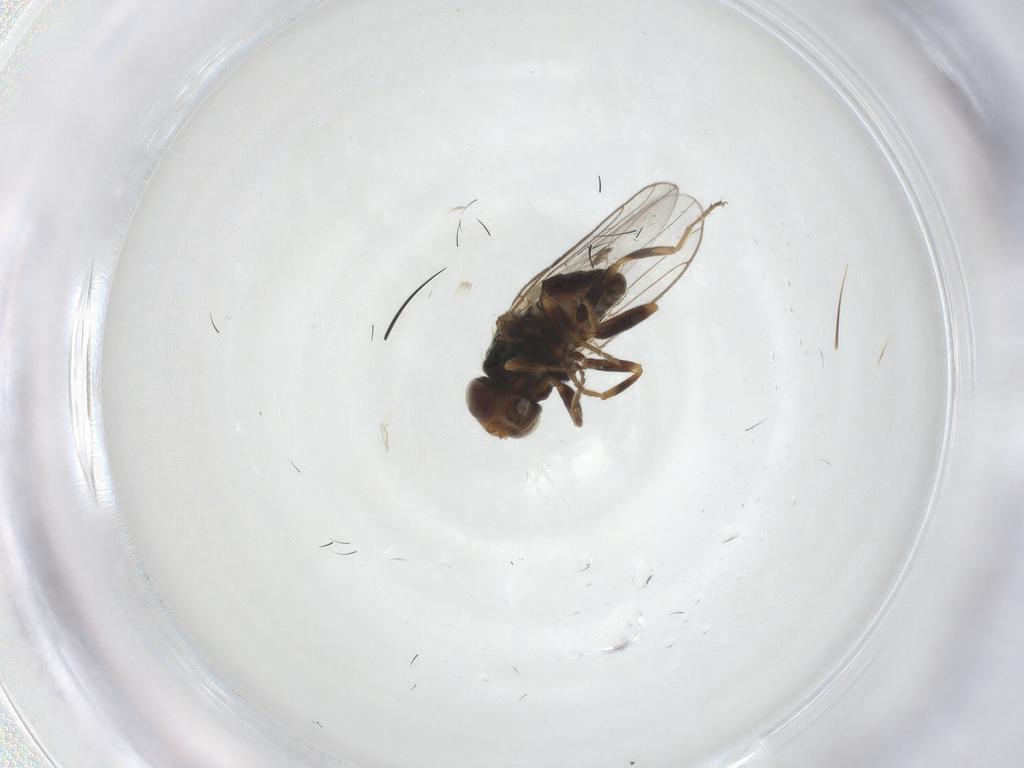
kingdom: Animalia
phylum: Arthropoda
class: Insecta
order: Diptera
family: Chloropidae
